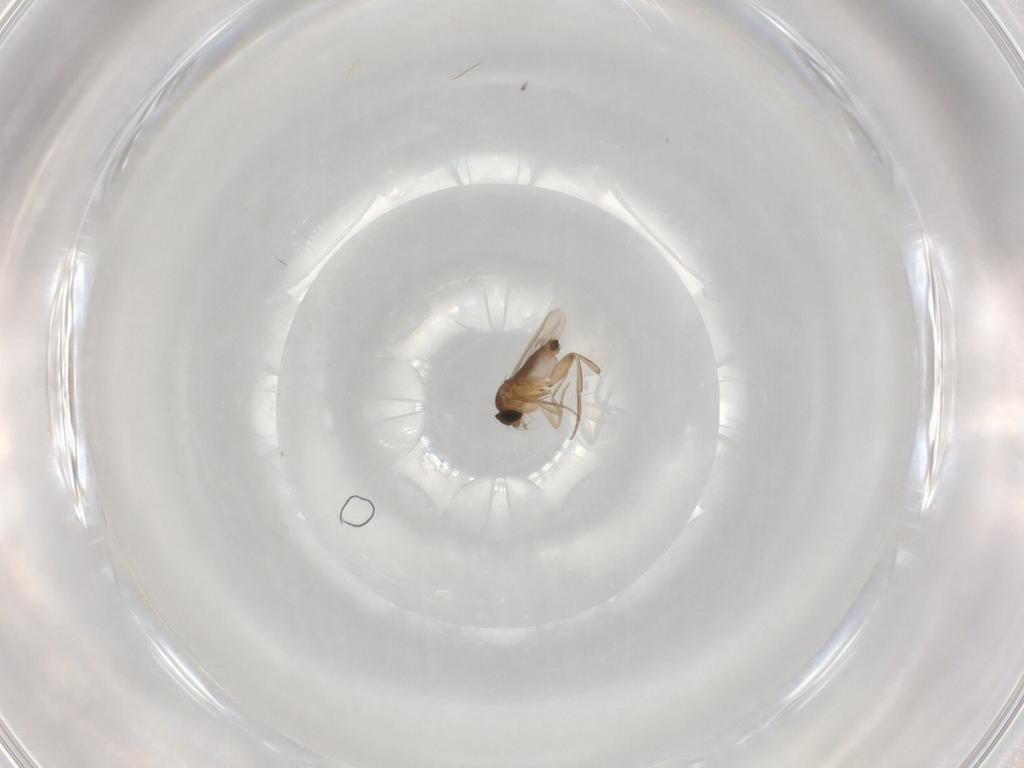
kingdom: Animalia
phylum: Arthropoda
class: Insecta
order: Diptera
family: Phoridae
